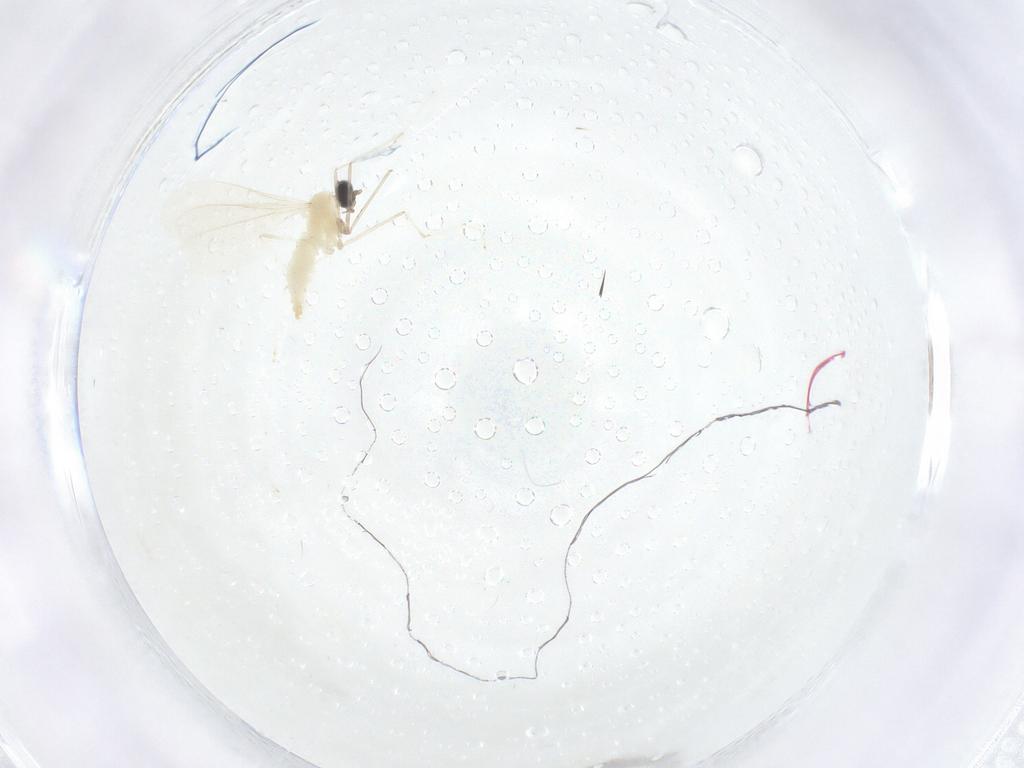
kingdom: Animalia
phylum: Arthropoda
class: Insecta
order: Diptera
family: Cecidomyiidae
